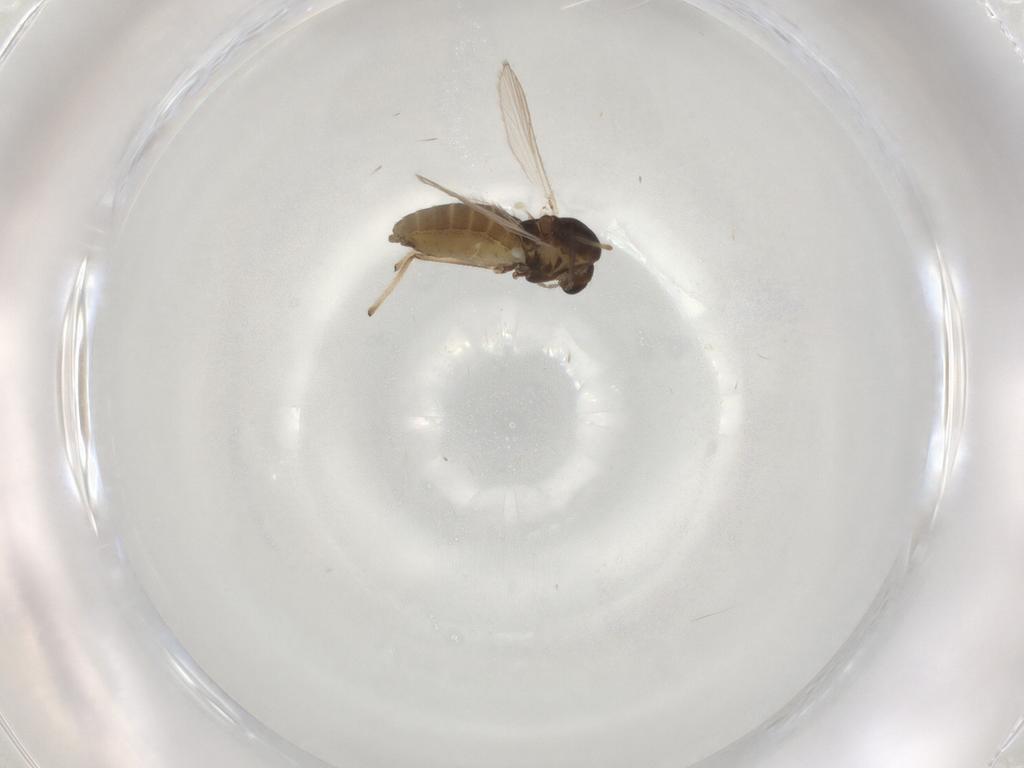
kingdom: Animalia
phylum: Arthropoda
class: Insecta
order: Diptera
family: Chironomidae
